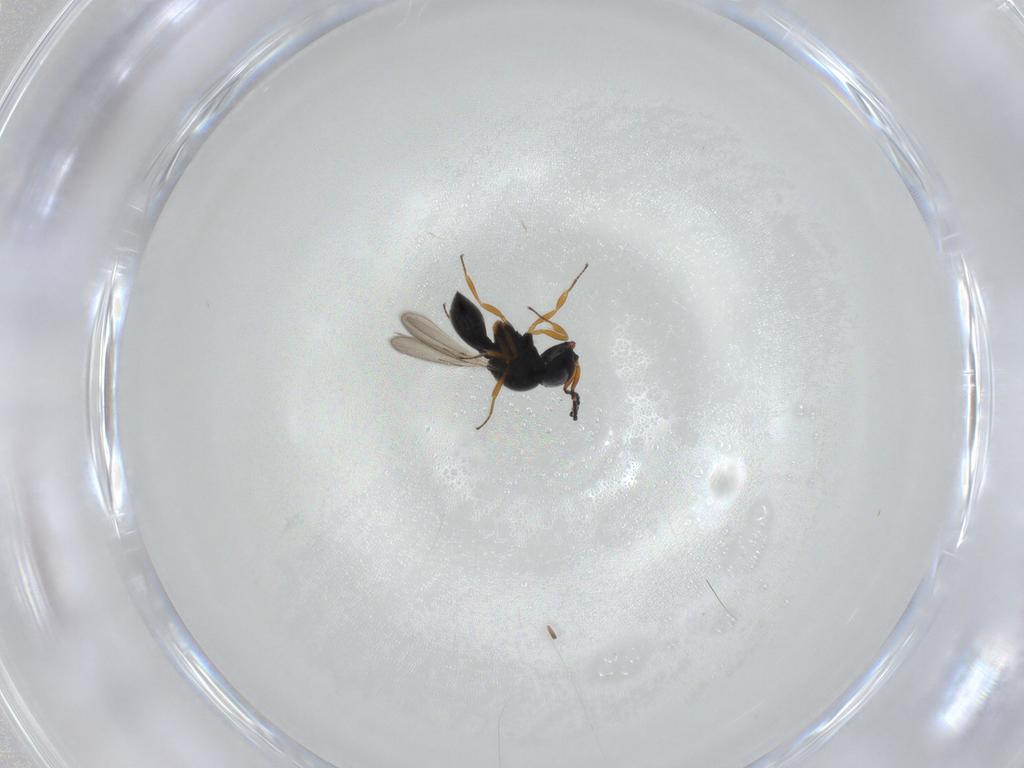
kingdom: Animalia
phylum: Arthropoda
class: Insecta
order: Hymenoptera
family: Scelionidae
